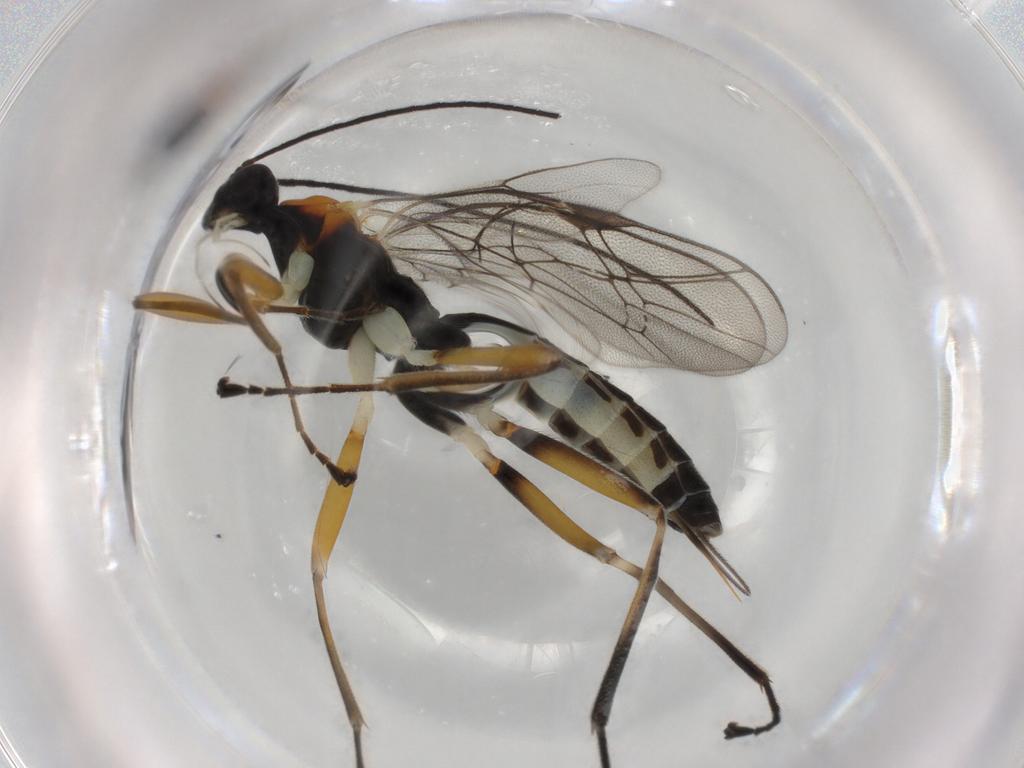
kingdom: Animalia
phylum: Arthropoda
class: Insecta
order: Hymenoptera
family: Ichneumonidae
